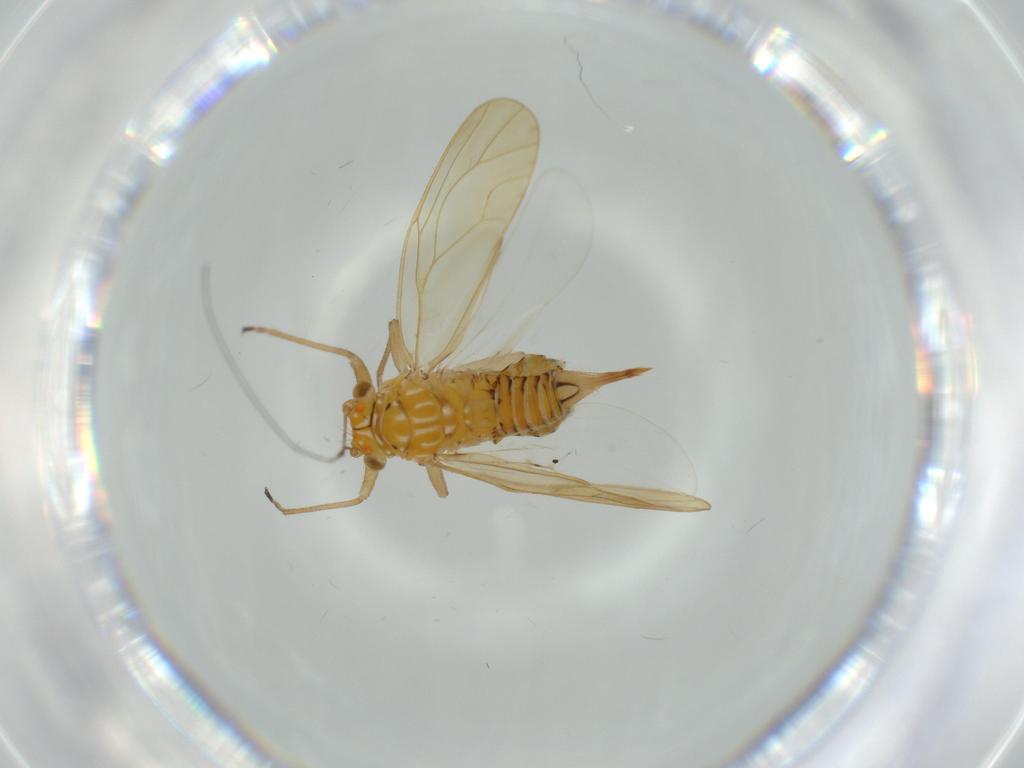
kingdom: Animalia
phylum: Arthropoda
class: Insecta
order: Hemiptera
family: Psyllidae
